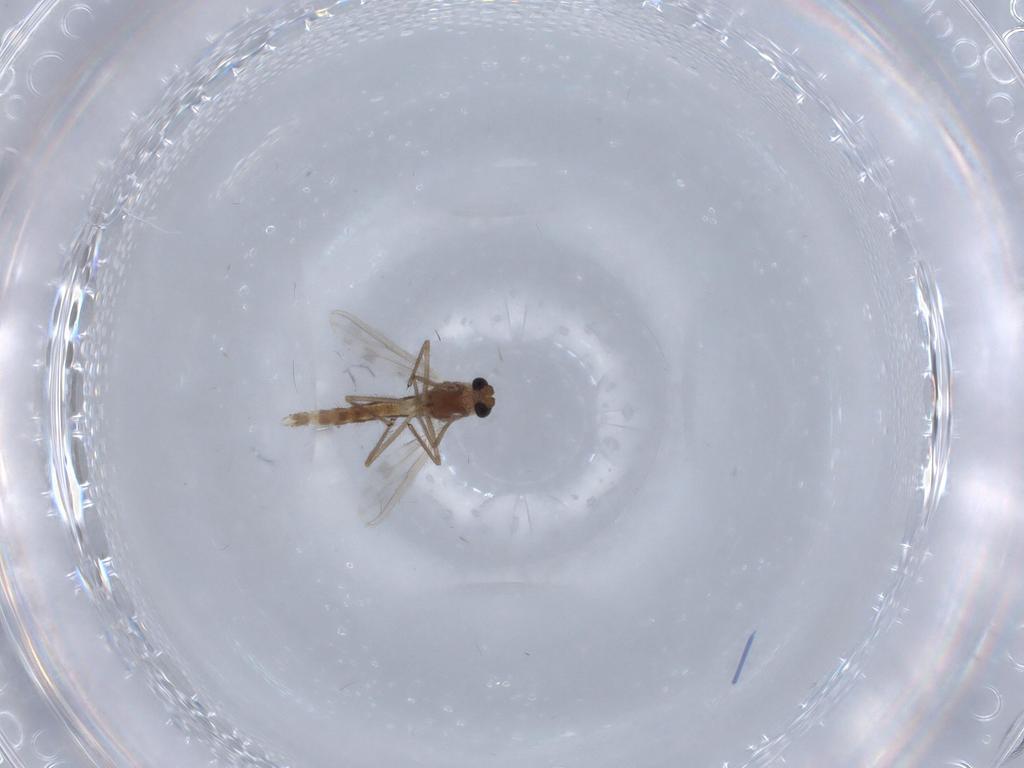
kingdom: Animalia
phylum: Arthropoda
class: Insecta
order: Diptera
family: Chironomidae
